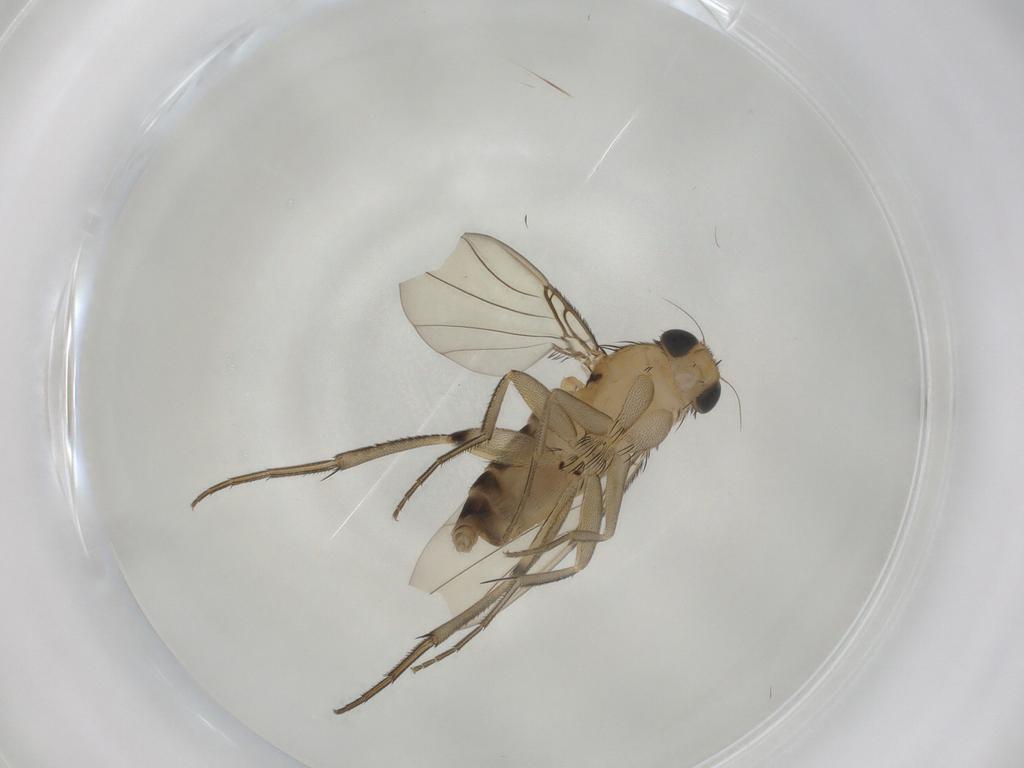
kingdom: Animalia
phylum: Arthropoda
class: Insecta
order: Diptera
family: Phoridae
